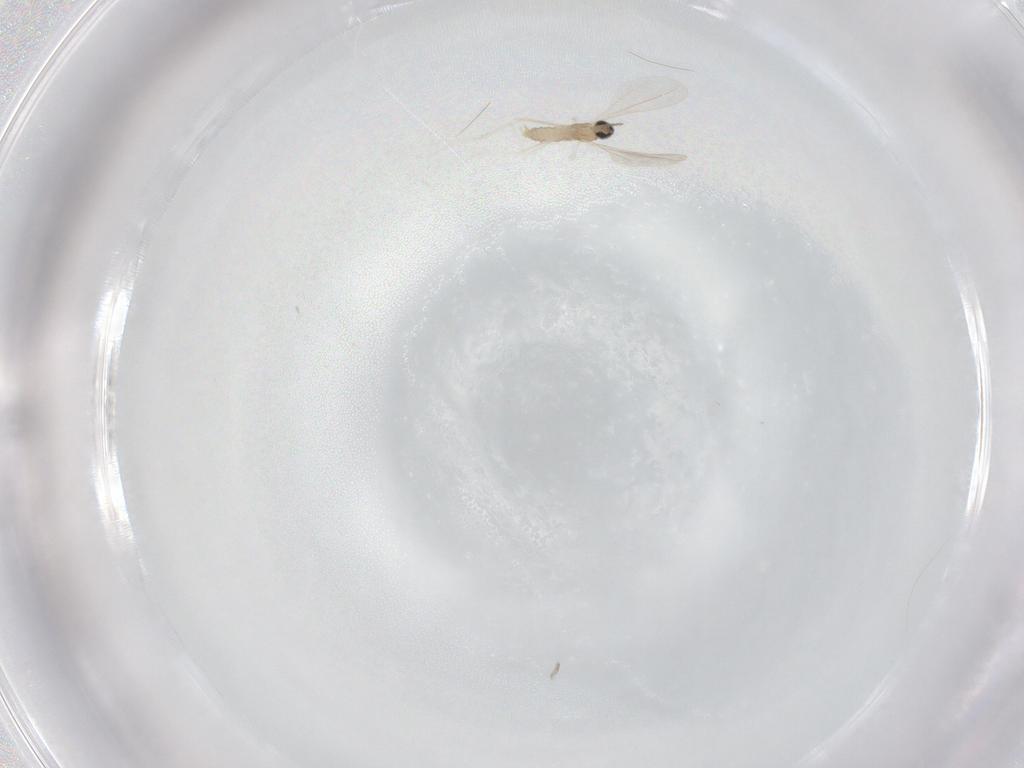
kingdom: Animalia
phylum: Arthropoda
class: Insecta
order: Diptera
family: Cecidomyiidae
